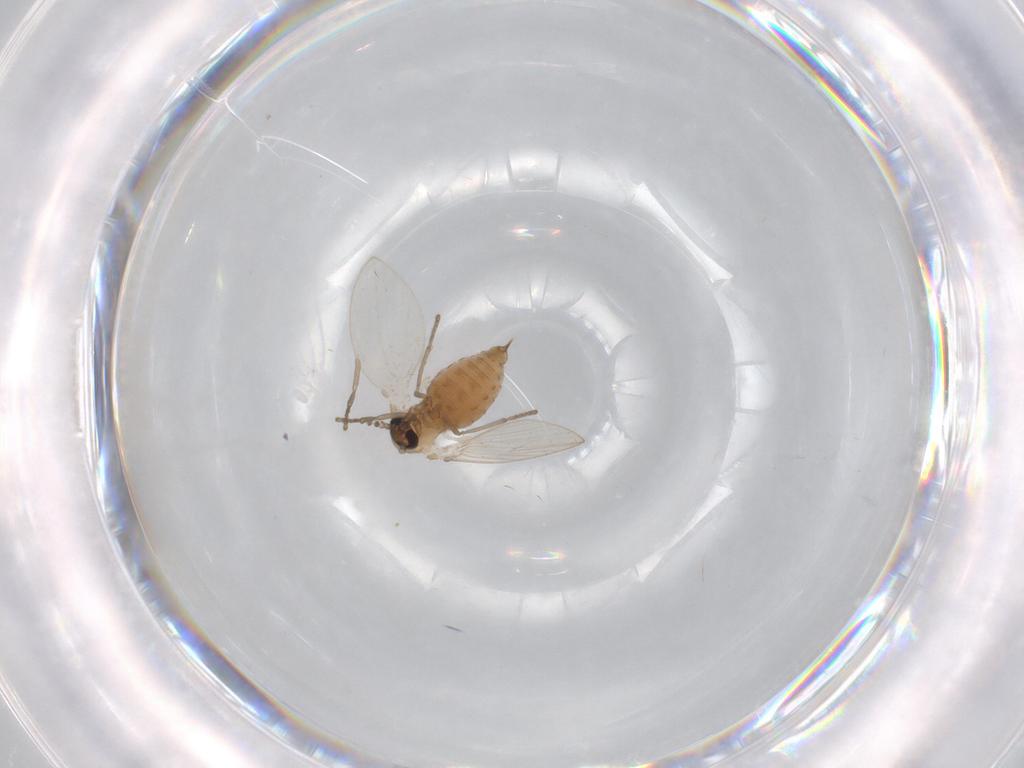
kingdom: Animalia
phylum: Arthropoda
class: Insecta
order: Diptera
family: Psychodidae
